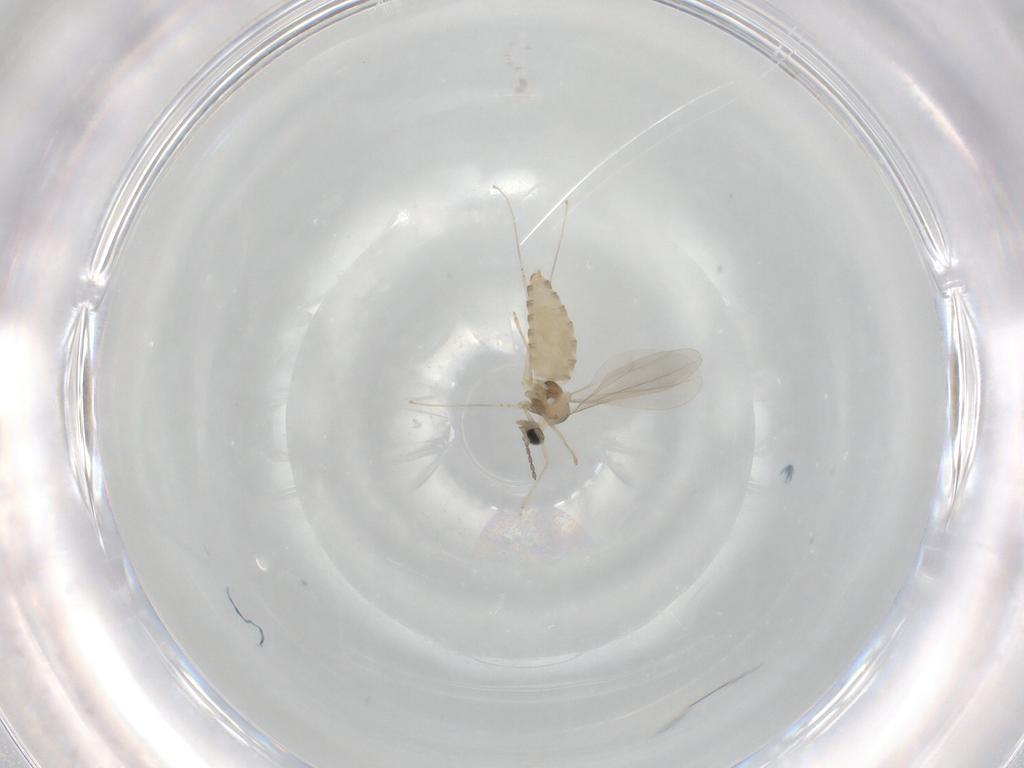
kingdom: Animalia
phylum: Arthropoda
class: Insecta
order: Diptera
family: Cecidomyiidae
